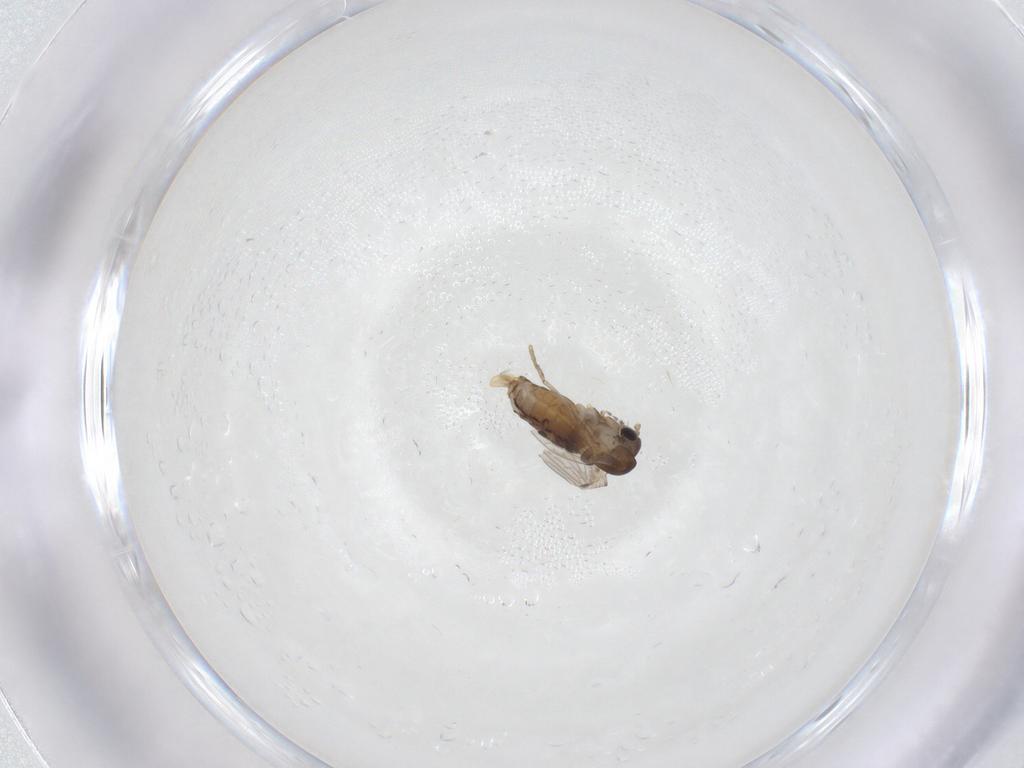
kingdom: Animalia
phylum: Arthropoda
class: Insecta
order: Diptera
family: Psychodidae
